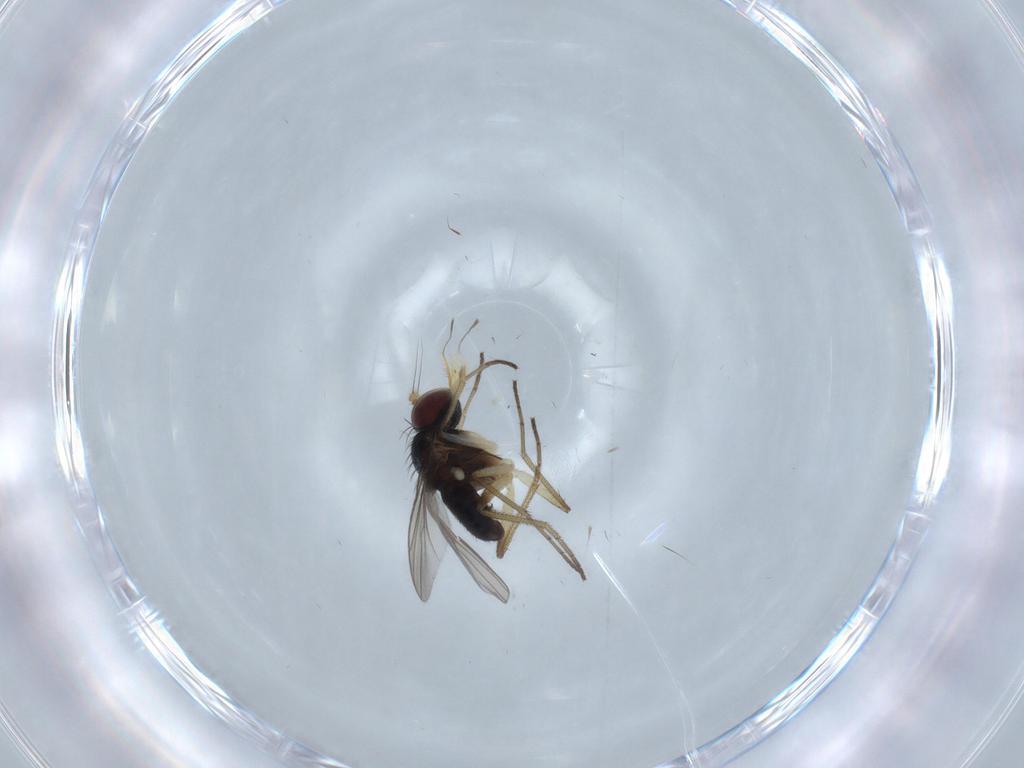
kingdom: Animalia
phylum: Arthropoda
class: Insecta
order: Diptera
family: Dolichopodidae
